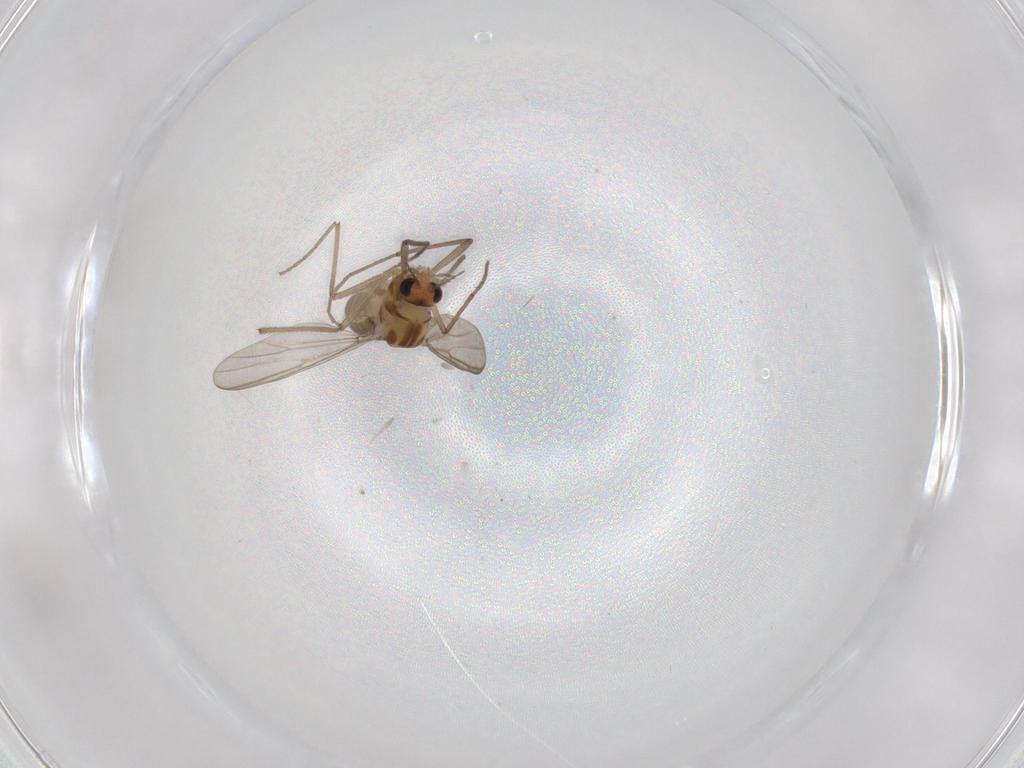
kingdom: Animalia
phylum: Arthropoda
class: Insecta
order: Diptera
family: Chironomidae
